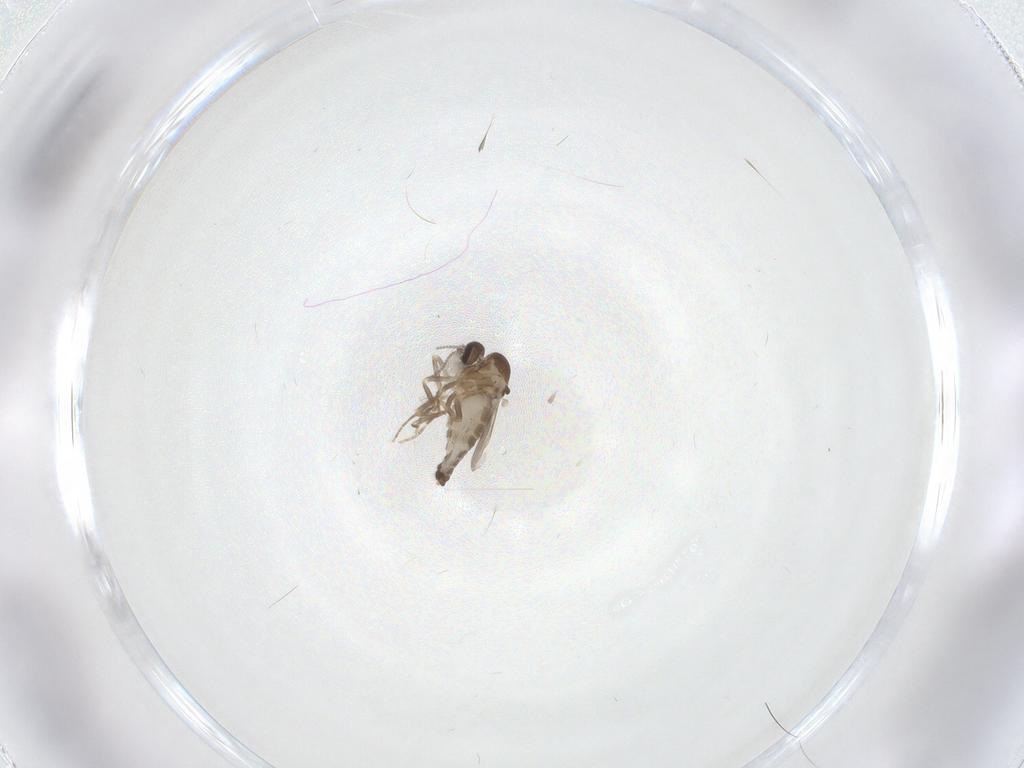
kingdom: Animalia
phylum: Arthropoda
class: Insecta
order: Diptera
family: Ceratopogonidae
